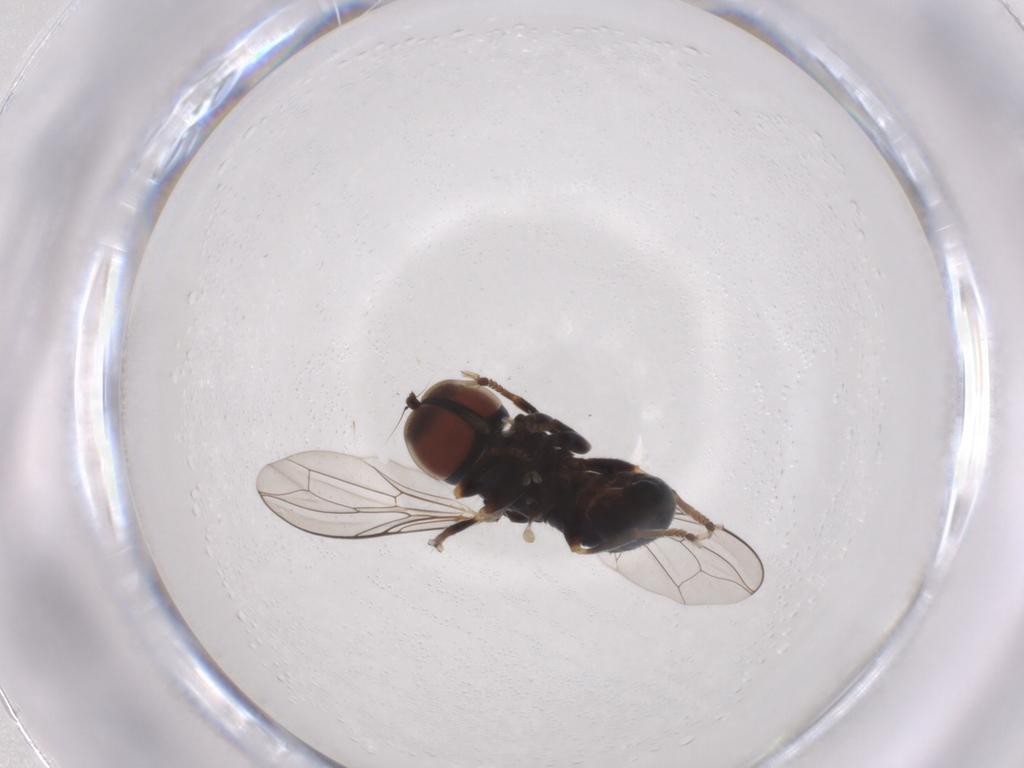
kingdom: Animalia
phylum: Arthropoda
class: Insecta
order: Diptera
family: Pipunculidae
